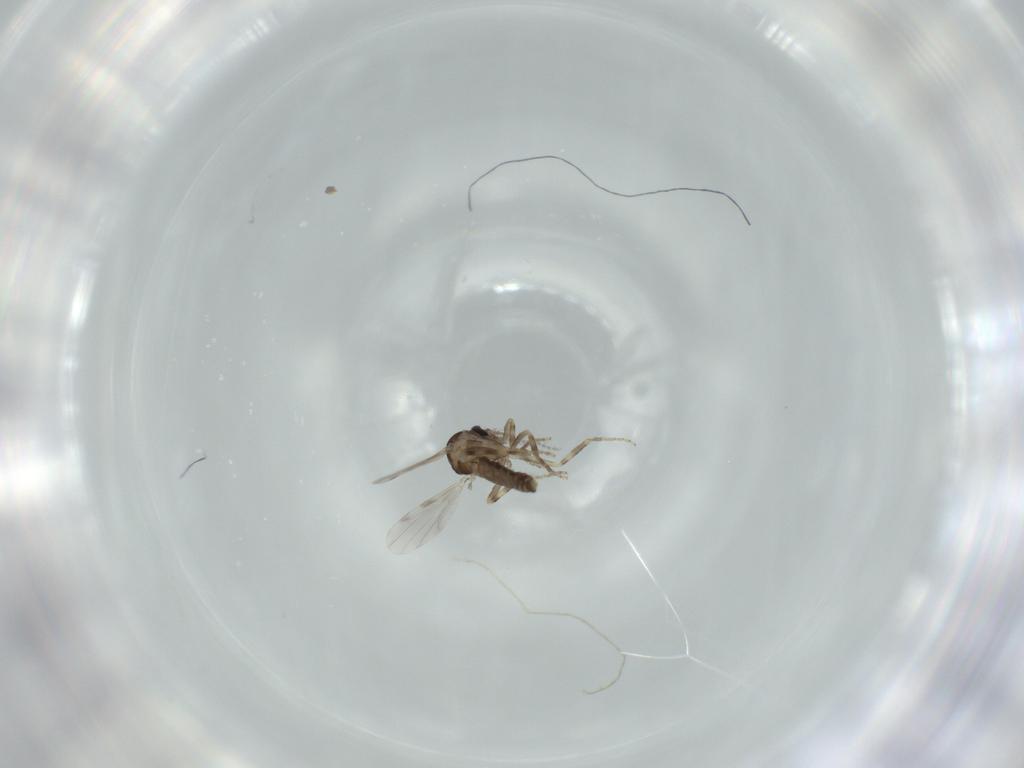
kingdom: Animalia
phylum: Arthropoda
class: Insecta
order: Diptera
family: Ceratopogonidae
